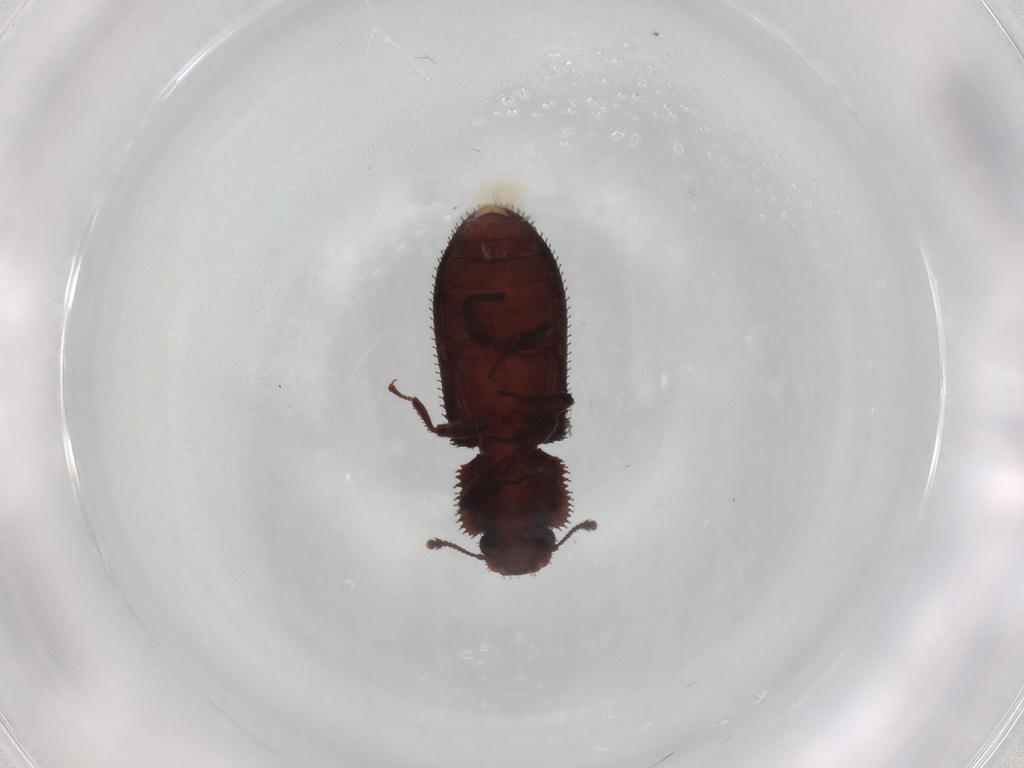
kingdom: Animalia
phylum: Arthropoda
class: Insecta
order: Coleoptera
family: Zopheridae
